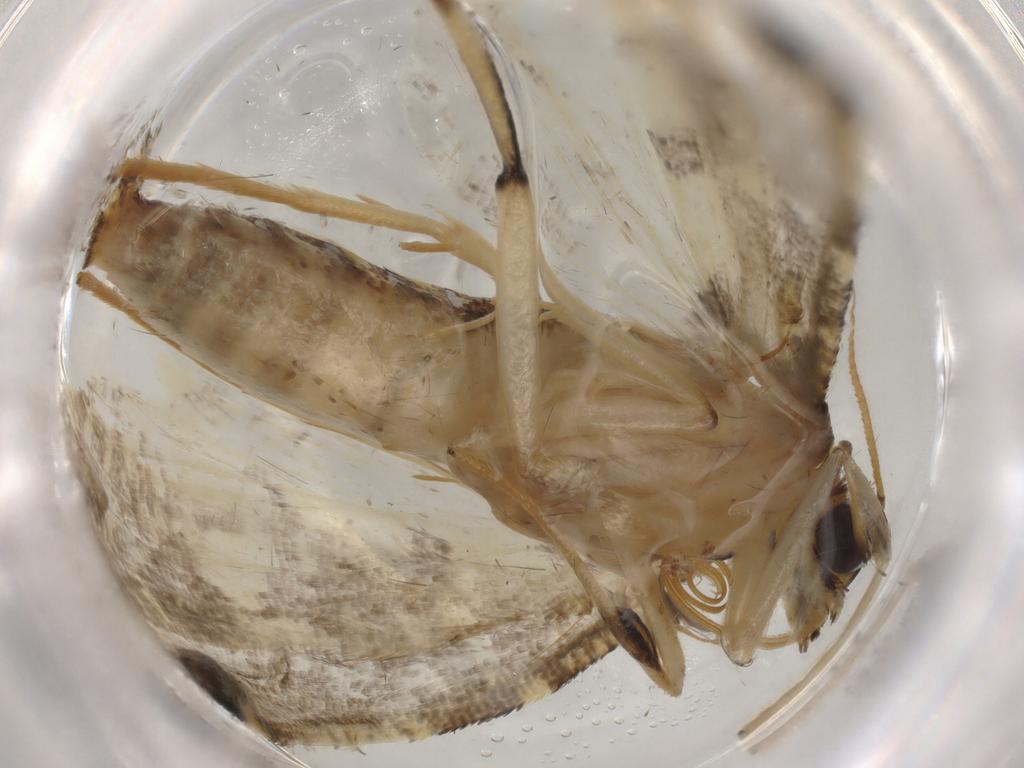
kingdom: Animalia
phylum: Arthropoda
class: Insecta
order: Lepidoptera
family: Crambidae
